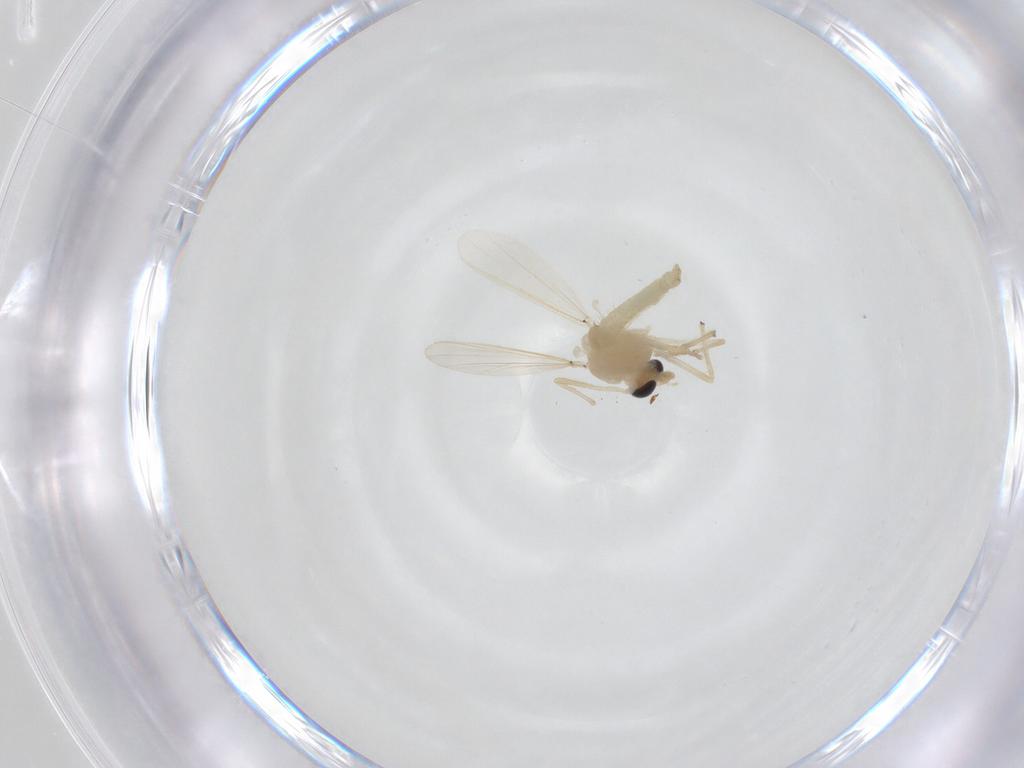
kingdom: Animalia
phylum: Arthropoda
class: Insecta
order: Diptera
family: Chironomidae
